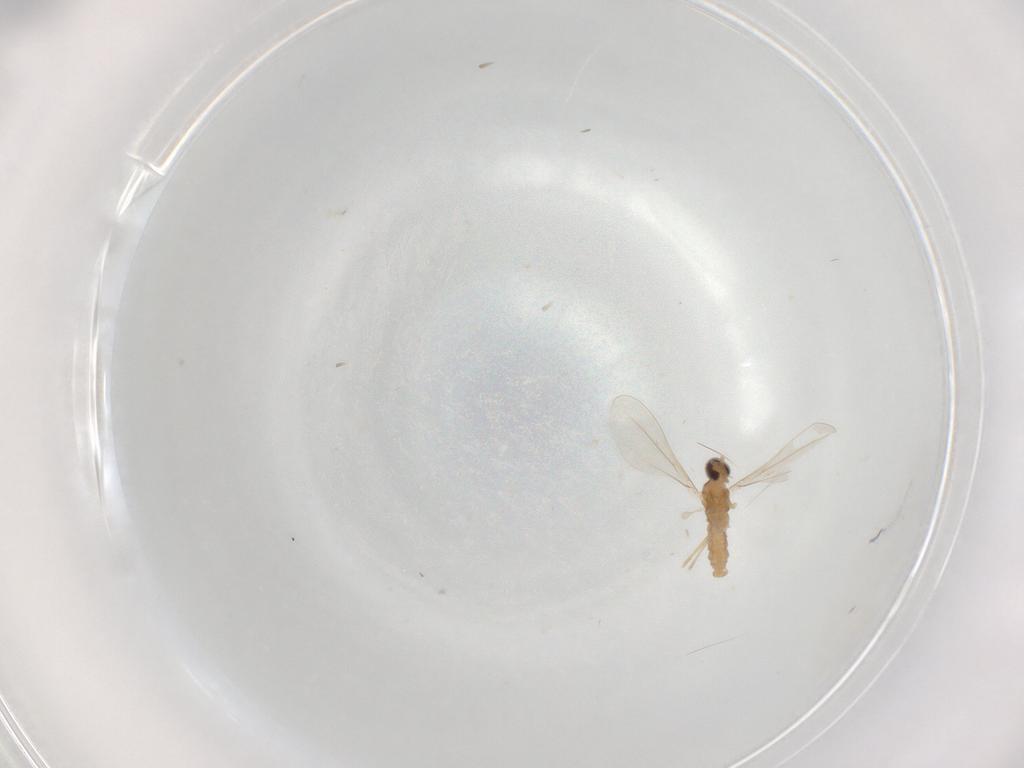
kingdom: Animalia
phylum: Arthropoda
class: Insecta
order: Diptera
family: Cecidomyiidae
